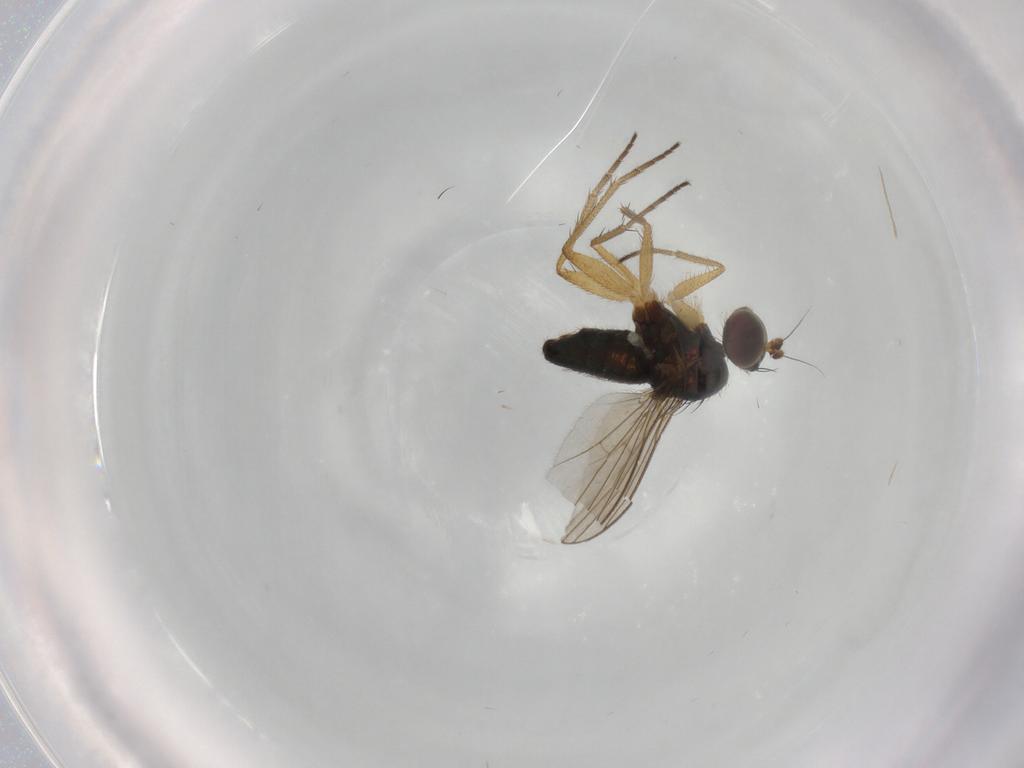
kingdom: Animalia
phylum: Arthropoda
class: Insecta
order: Diptera
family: Dolichopodidae
